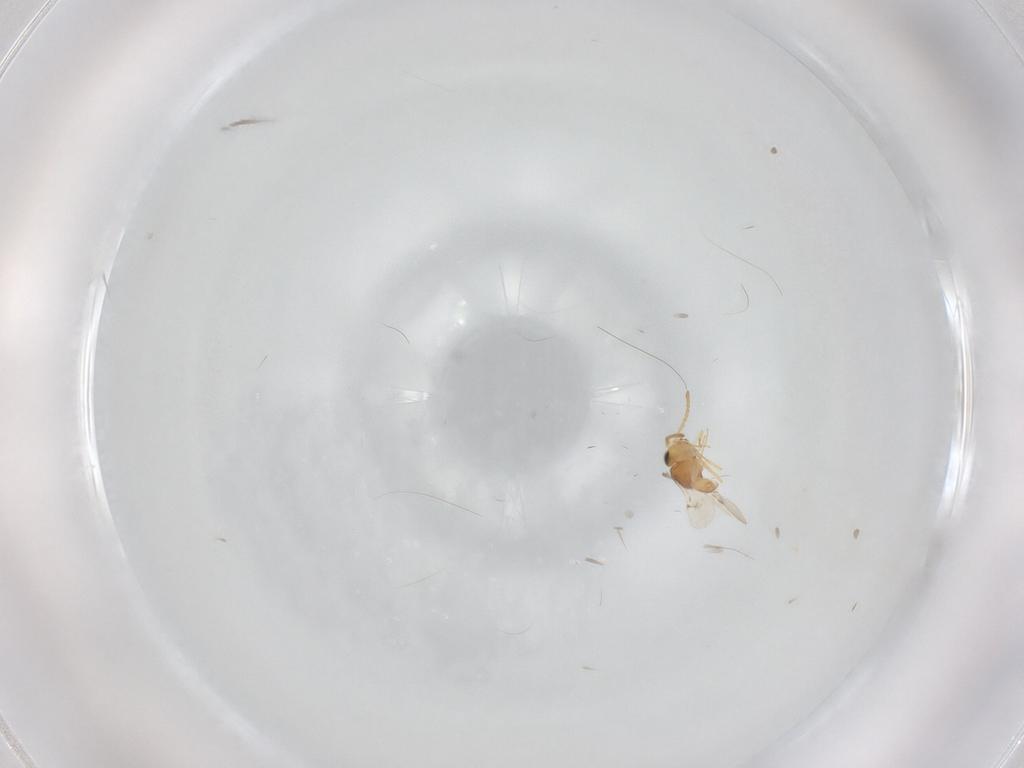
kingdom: Animalia
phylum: Arthropoda
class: Insecta
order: Hymenoptera
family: Scelionidae
